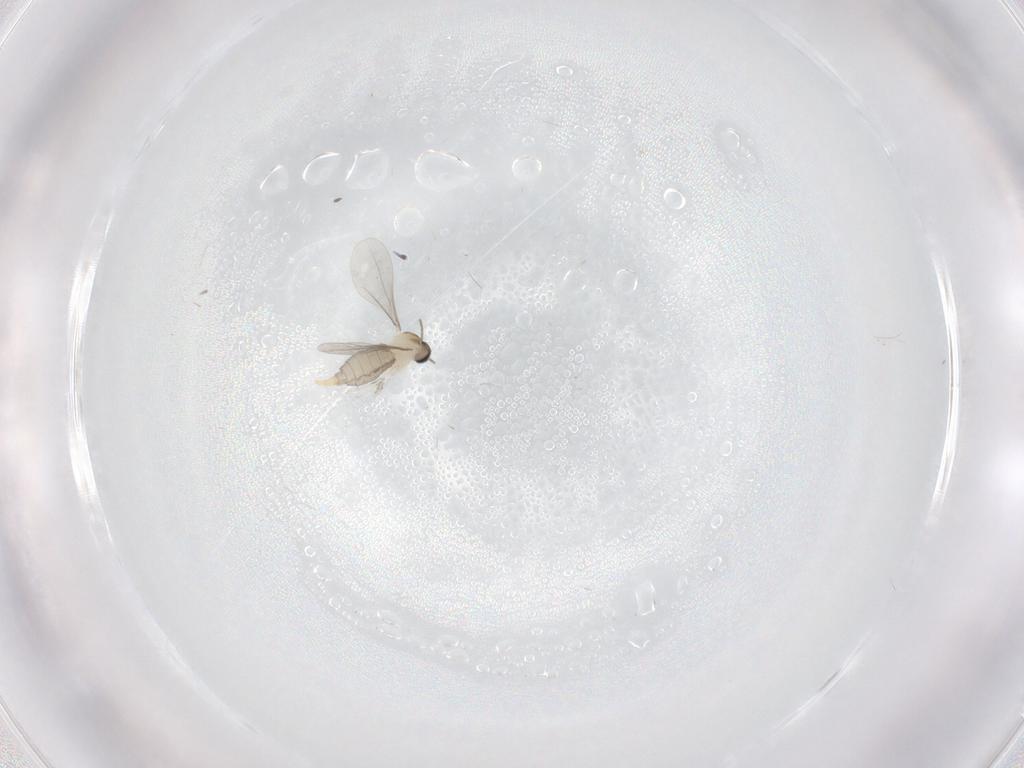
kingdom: Animalia
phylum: Arthropoda
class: Insecta
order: Diptera
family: Phoridae
